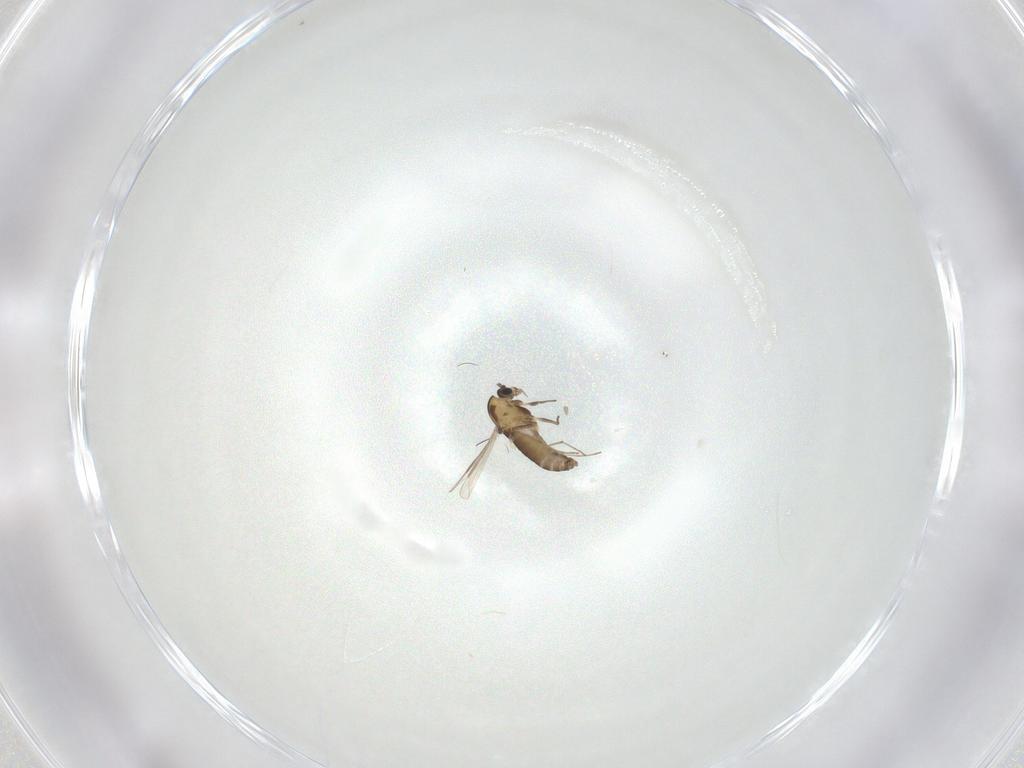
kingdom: Animalia
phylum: Arthropoda
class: Insecta
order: Diptera
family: Chironomidae
